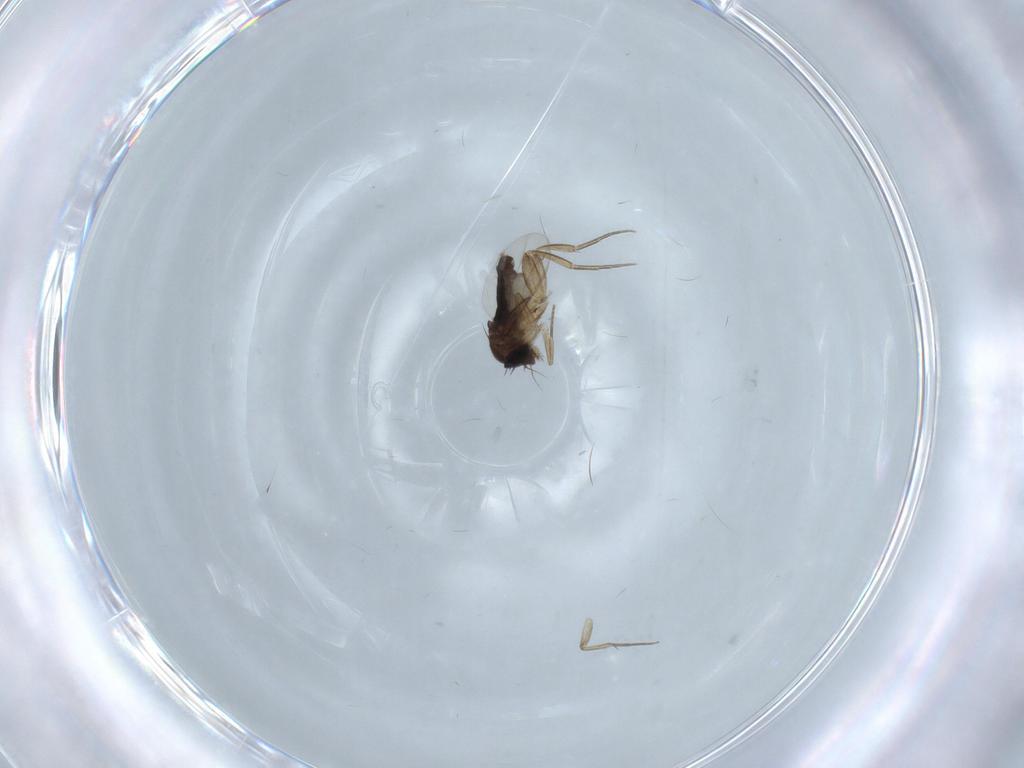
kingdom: Animalia
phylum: Arthropoda
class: Insecta
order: Diptera
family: Phoridae
